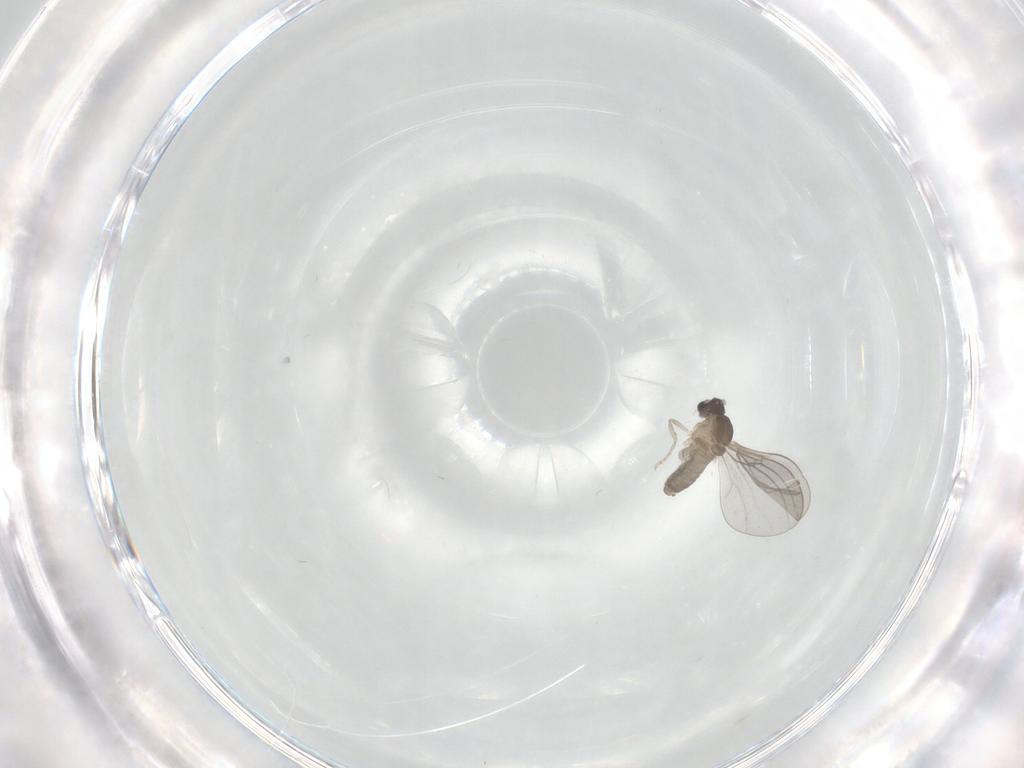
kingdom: Animalia
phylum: Arthropoda
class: Insecta
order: Diptera
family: Cecidomyiidae
